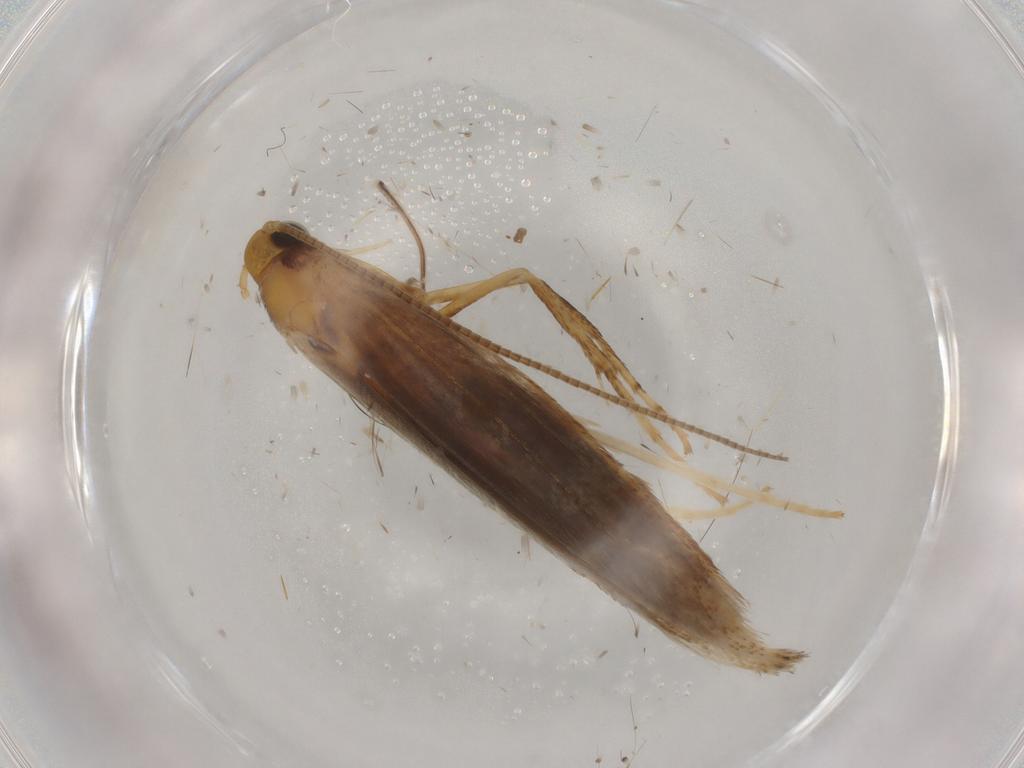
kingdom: Animalia
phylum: Arthropoda
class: Insecta
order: Lepidoptera
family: Gracillariidae
